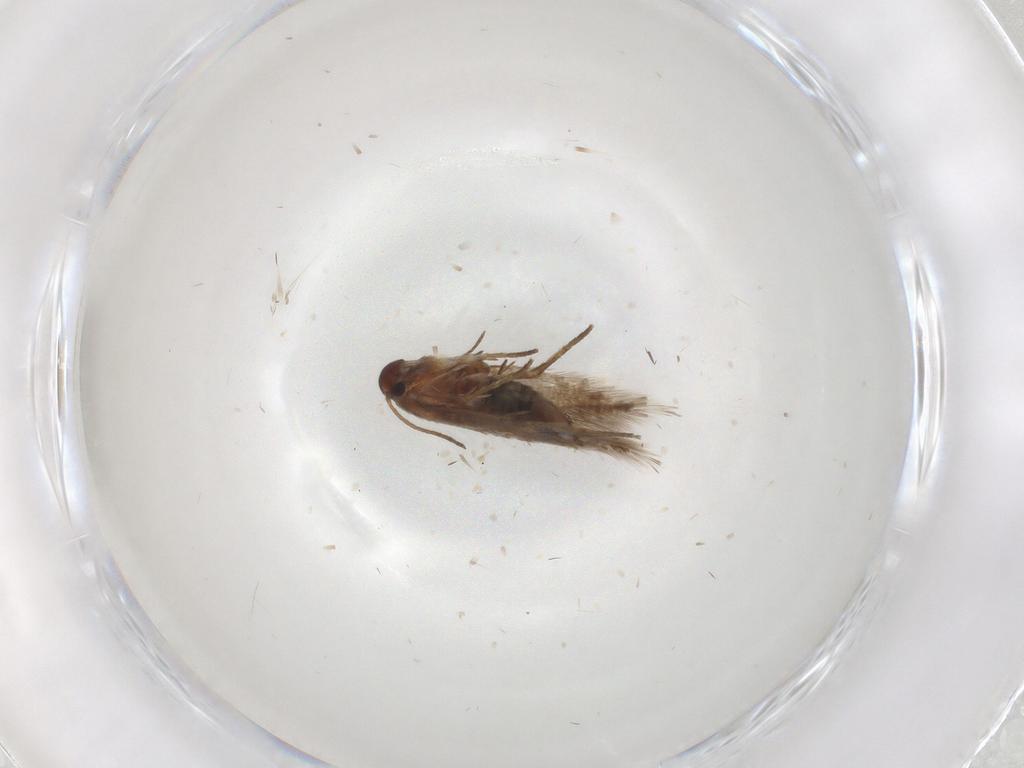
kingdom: Animalia
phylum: Arthropoda
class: Insecta
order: Lepidoptera
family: Heliozelidae
